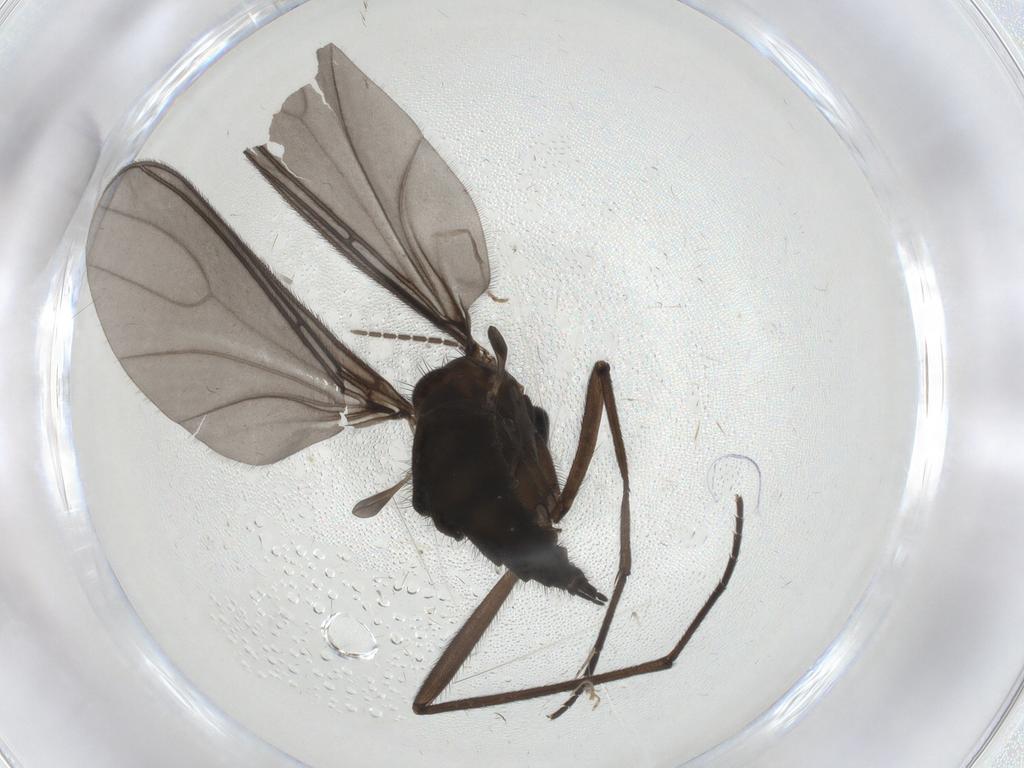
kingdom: Animalia
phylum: Arthropoda
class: Insecta
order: Diptera
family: Sciaridae
